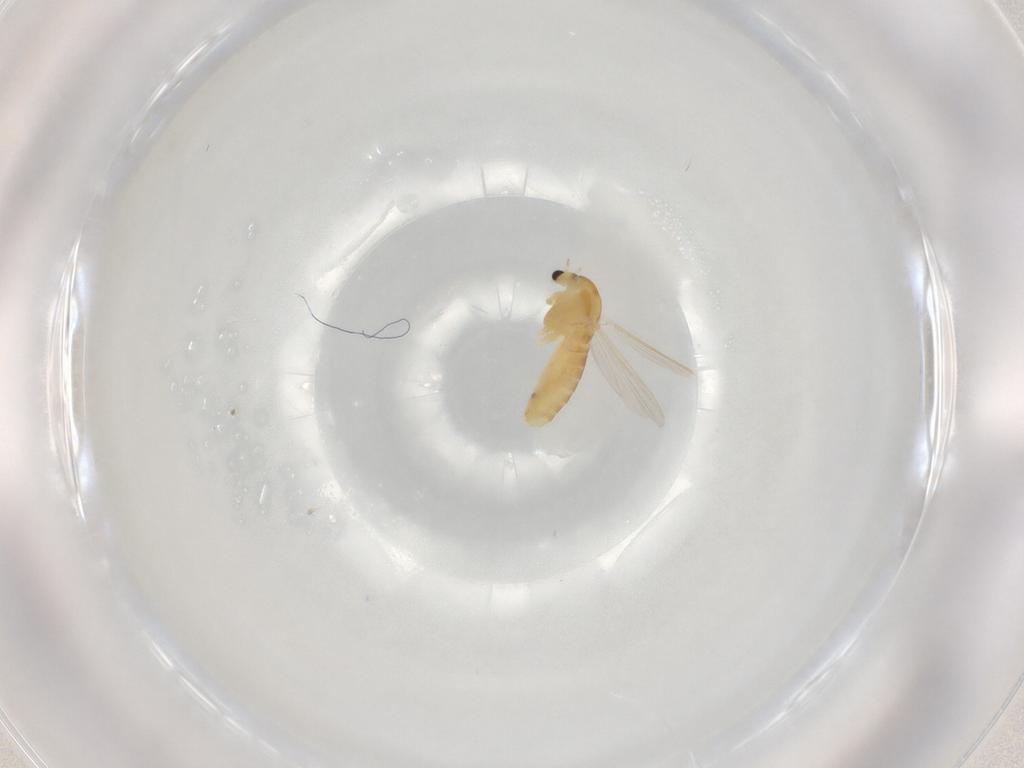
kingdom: Animalia
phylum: Arthropoda
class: Insecta
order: Diptera
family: Chironomidae
